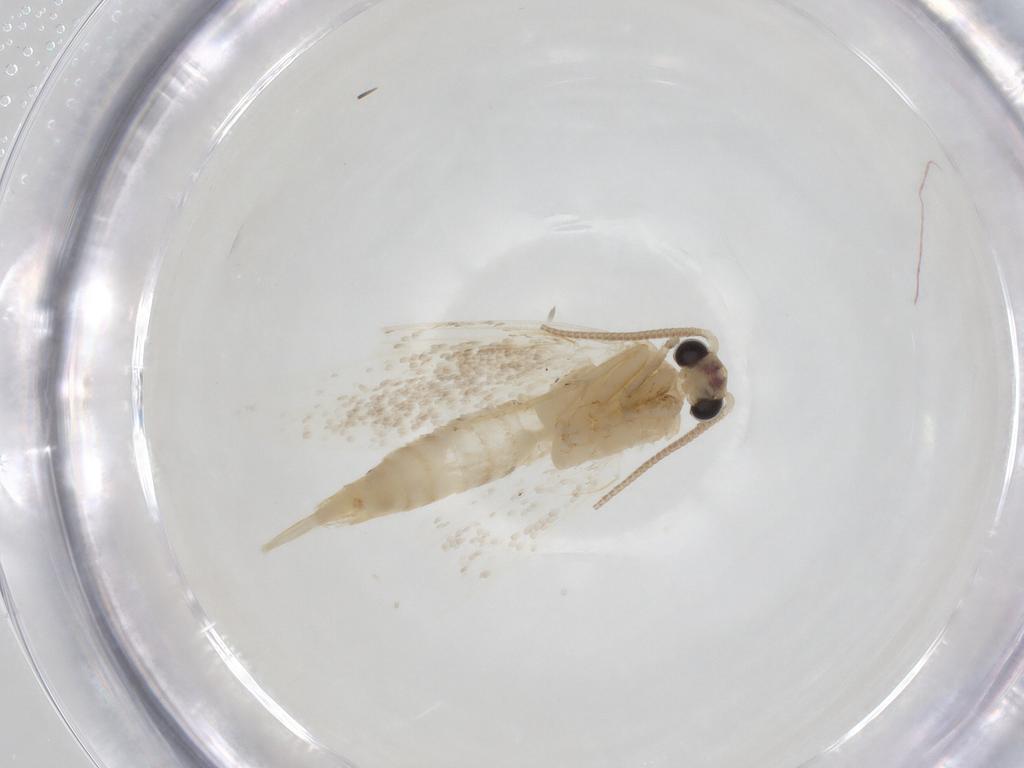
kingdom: Animalia
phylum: Arthropoda
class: Insecta
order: Lepidoptera
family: Tineidae
